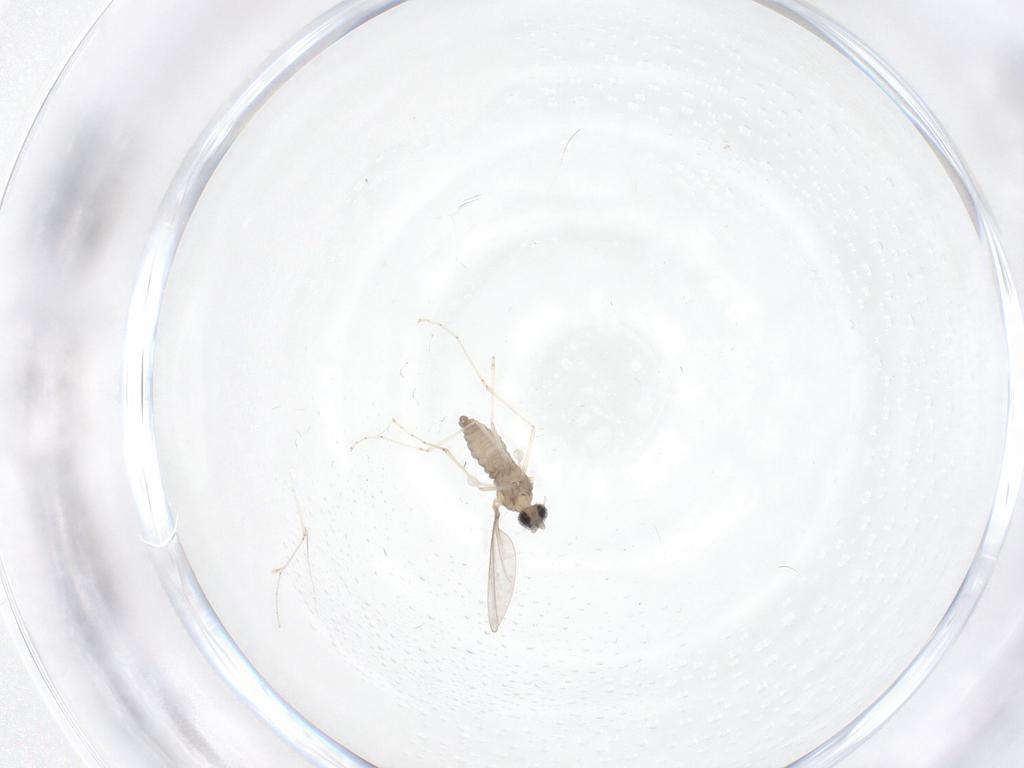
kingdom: Animalia
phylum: Arthropoda
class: Insecta
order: Diptera
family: Cecidomyiidae
